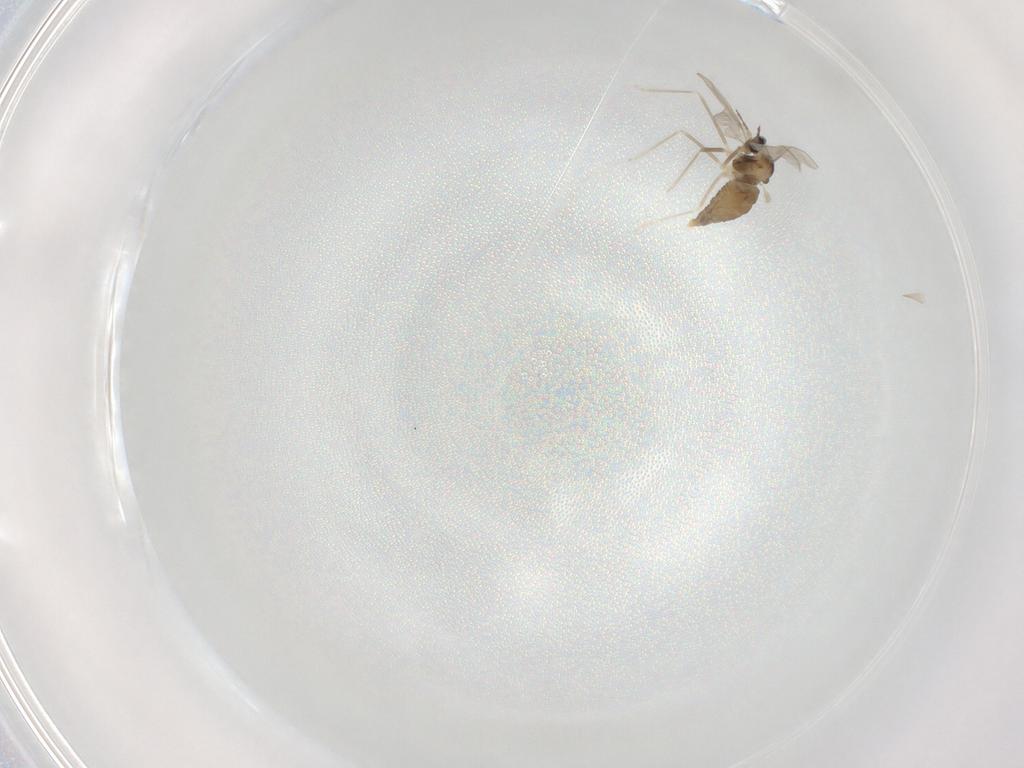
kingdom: Animalia
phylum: Arthropoda
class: Insecta
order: Diptera
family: Cecidomyiidae
